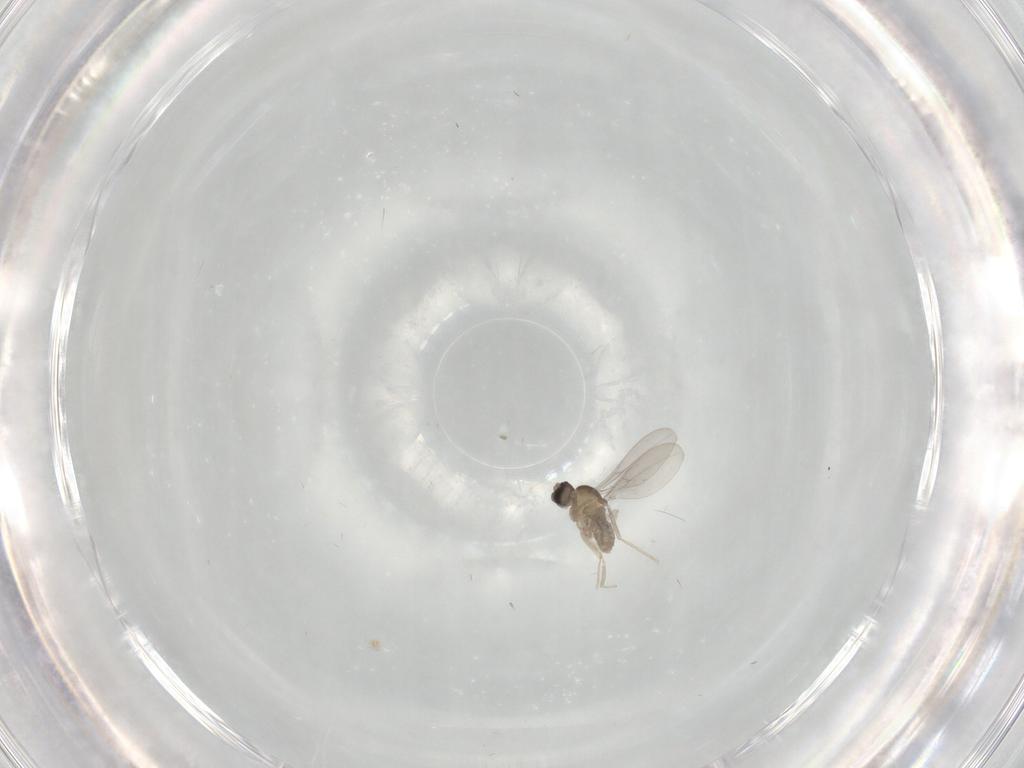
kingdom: Animalia
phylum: Arthropoda
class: Insecta
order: Diptera
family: Cecidomyiidae
